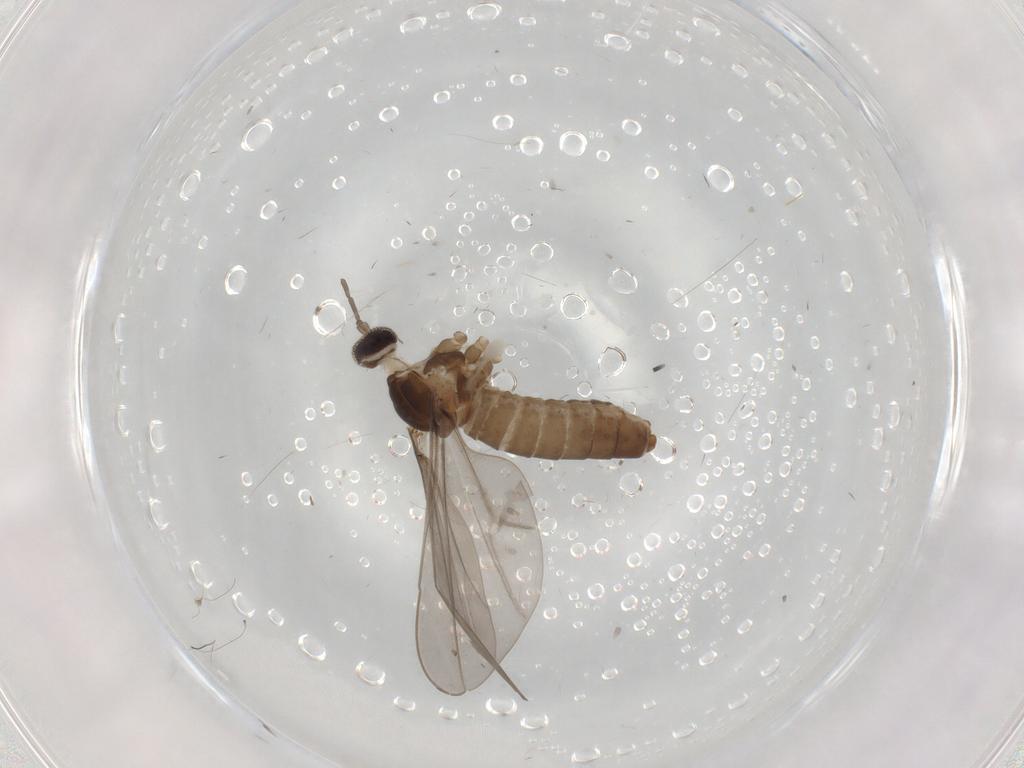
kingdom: Animalia
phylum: Arthropoda
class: Insecta
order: Diptera
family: Cecidomyiidae
